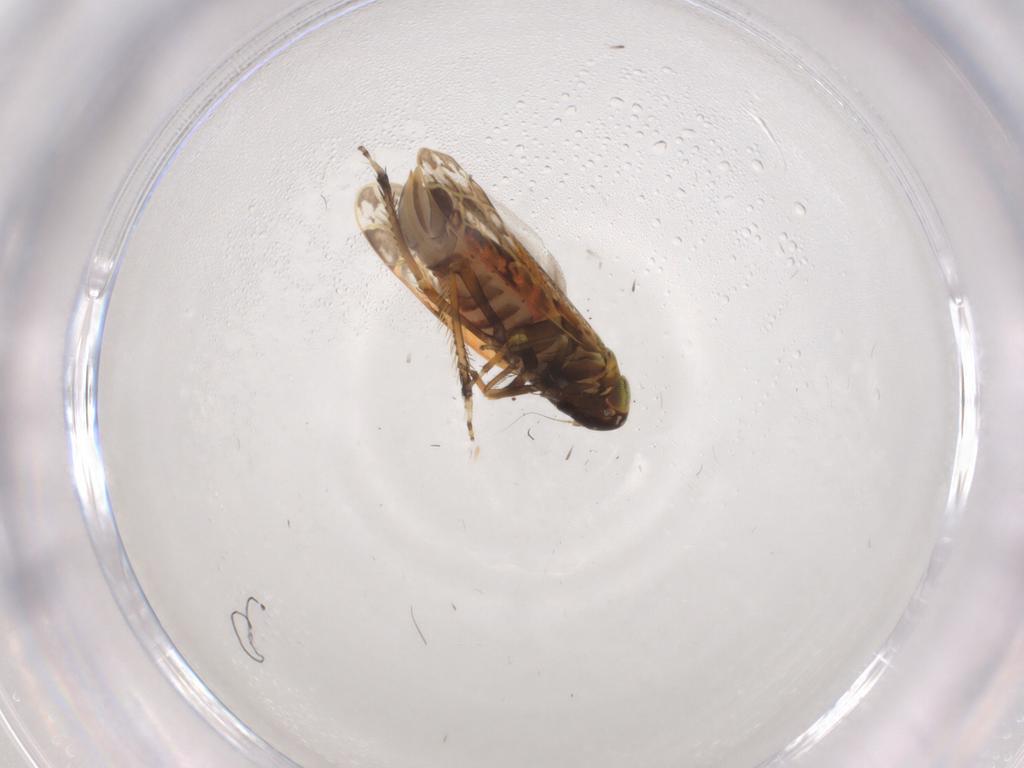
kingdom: Animalia
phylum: Arthropoda
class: Insecta
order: Hemiptera
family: Cicadellidae
